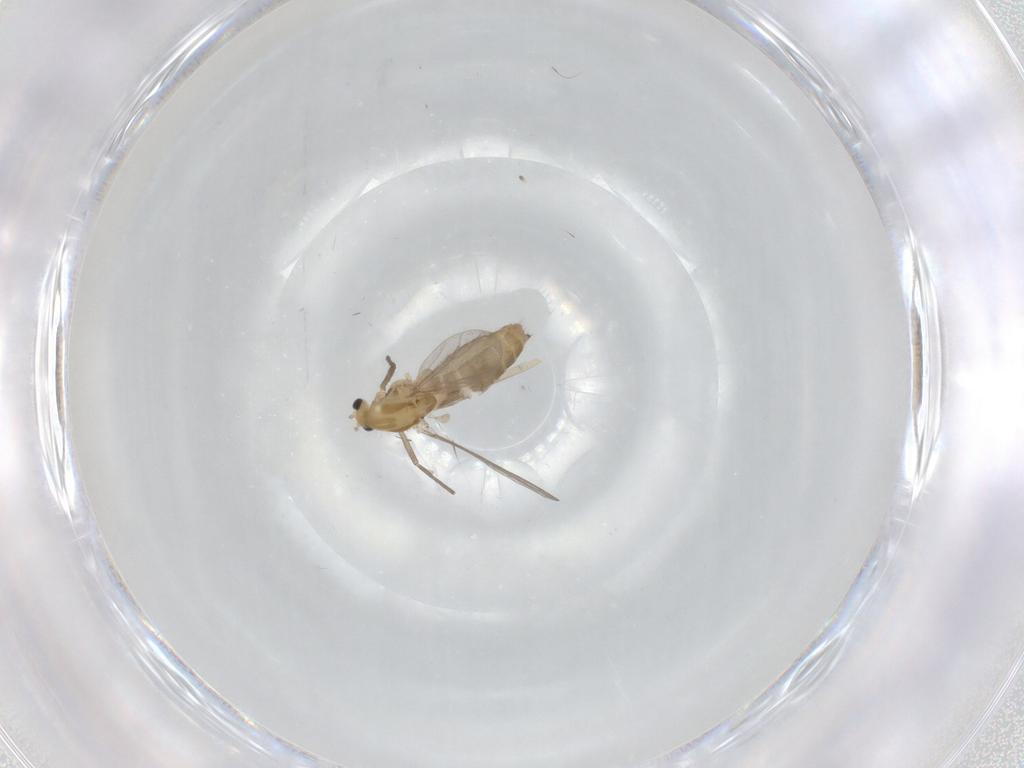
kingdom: Animalia
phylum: Arthropoda
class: Insecta
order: Diptera
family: Chironomidae
